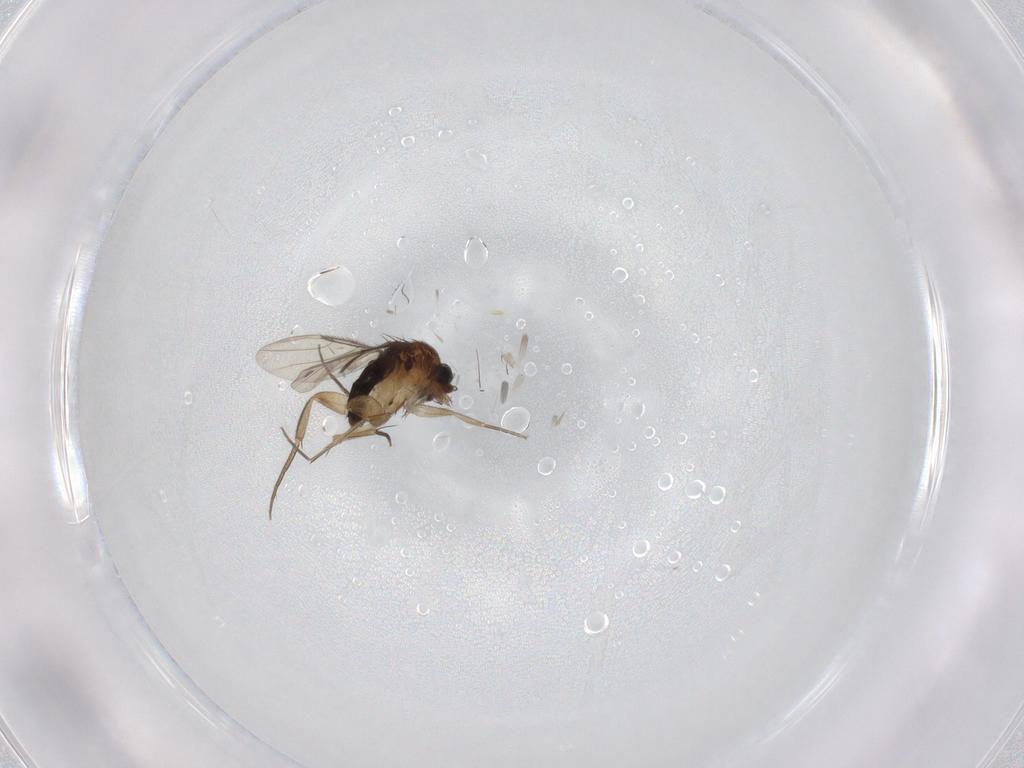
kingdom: Animalia
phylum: Arthropoda
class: Insecta
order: Diptera
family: Phoridae
